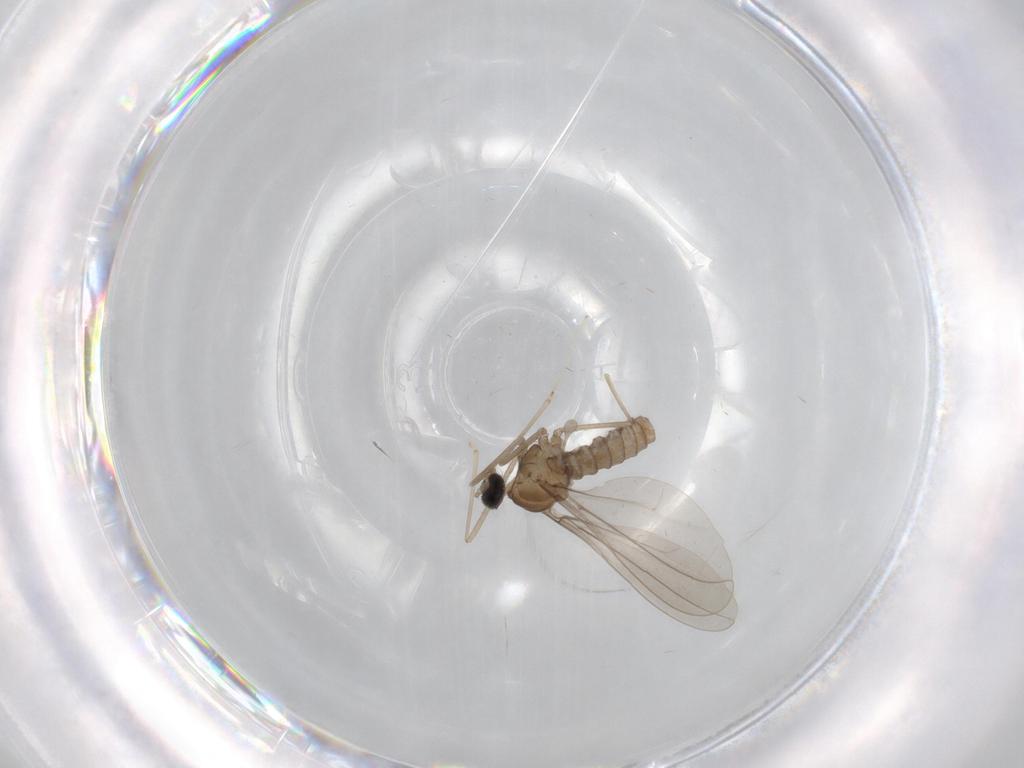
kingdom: Animalia
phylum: Arthropoda
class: Insecta
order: Diptera
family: Cecidomyiidae
